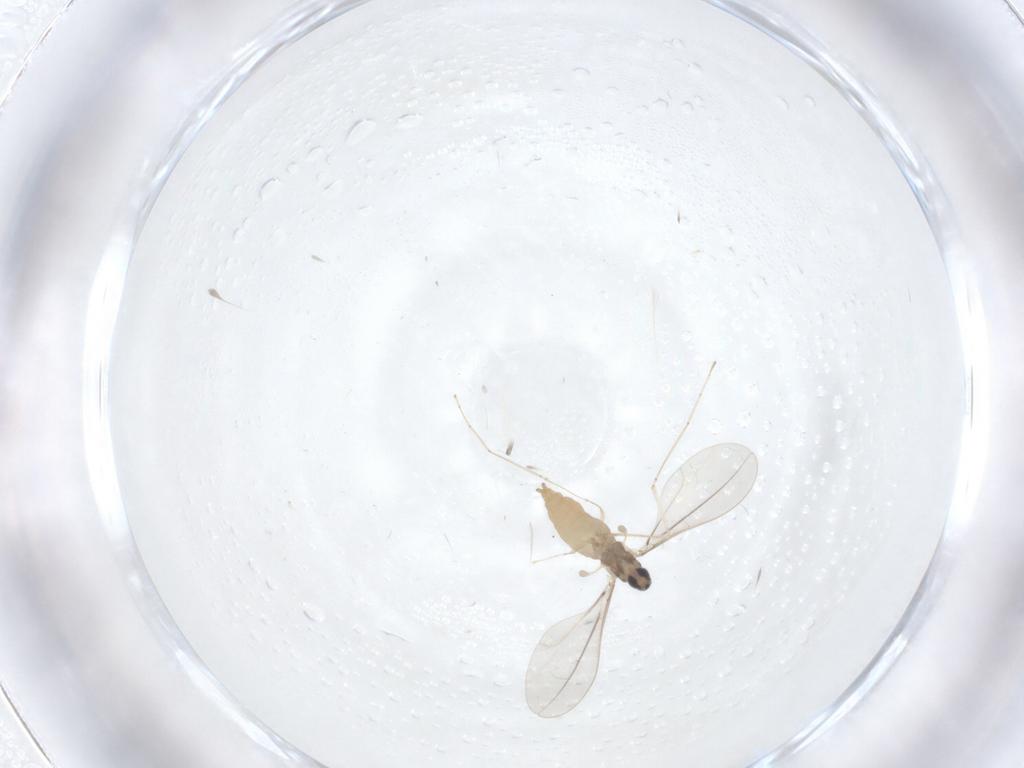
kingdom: Animalia
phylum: Arthropoda
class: Insecta
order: Diptera
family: Cecidomyiidae
